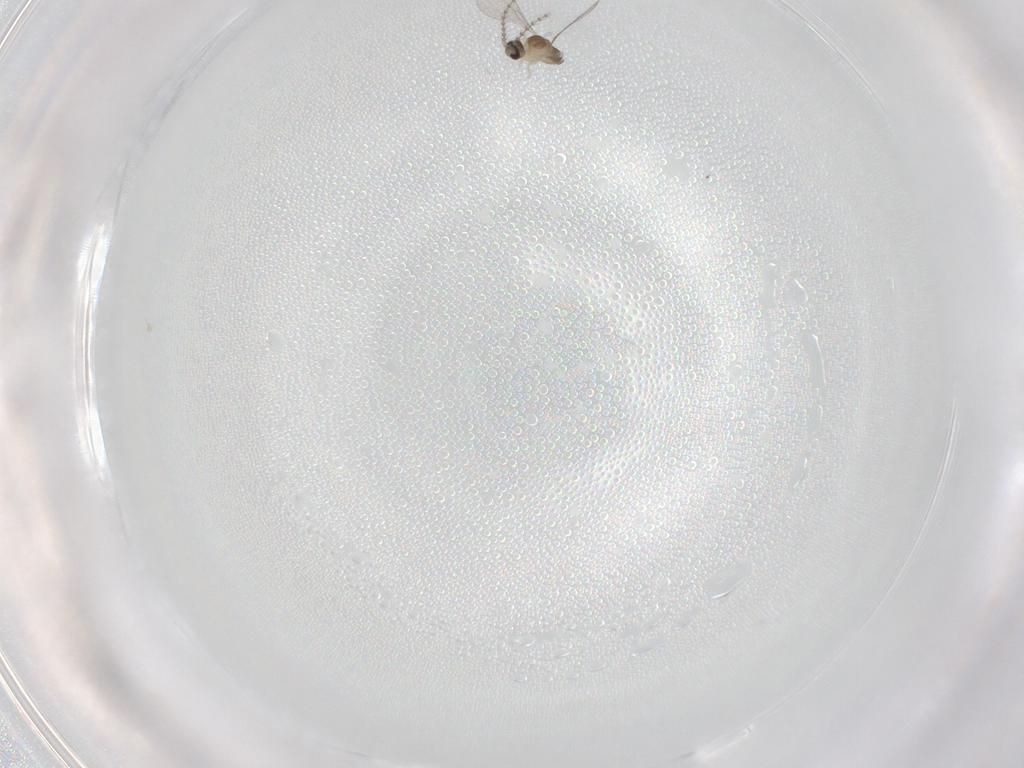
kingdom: Animalia
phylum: Arthropoda
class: Insecta
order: Diptera
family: Cecidomyiidae
